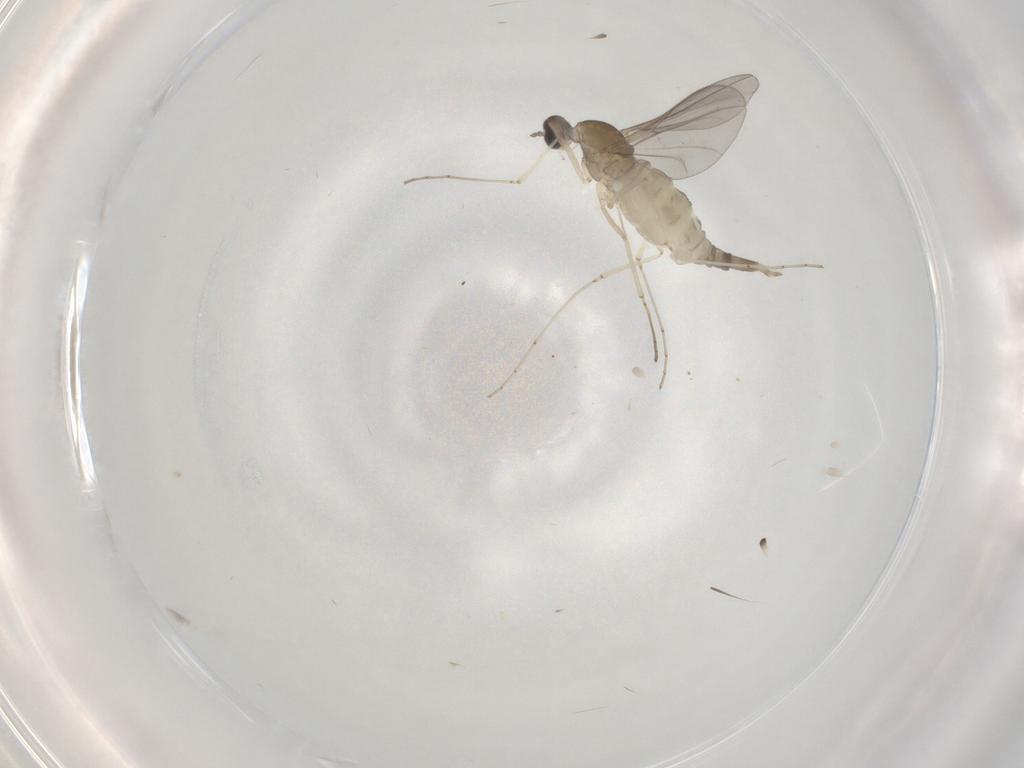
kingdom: Animalia
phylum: Arthropoda
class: Insecta
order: Diptera
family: Cecidomyiidae
